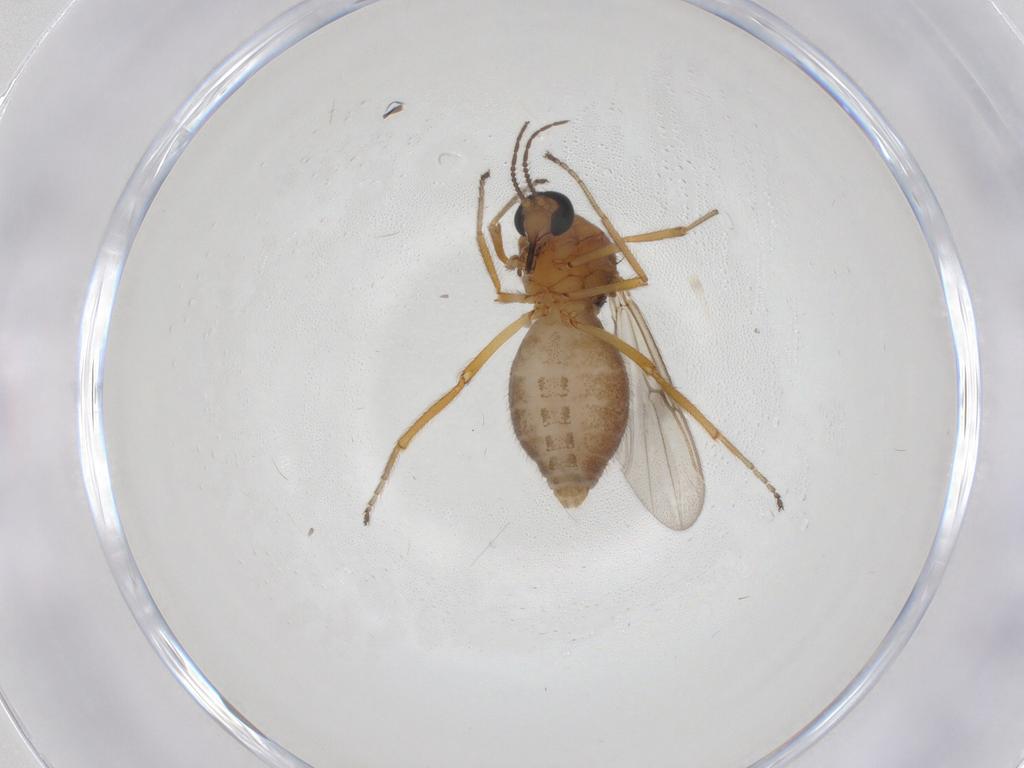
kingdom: Animalia
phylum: Arthropoda
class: Insecta
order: Diptera
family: Ceratopogonidae
